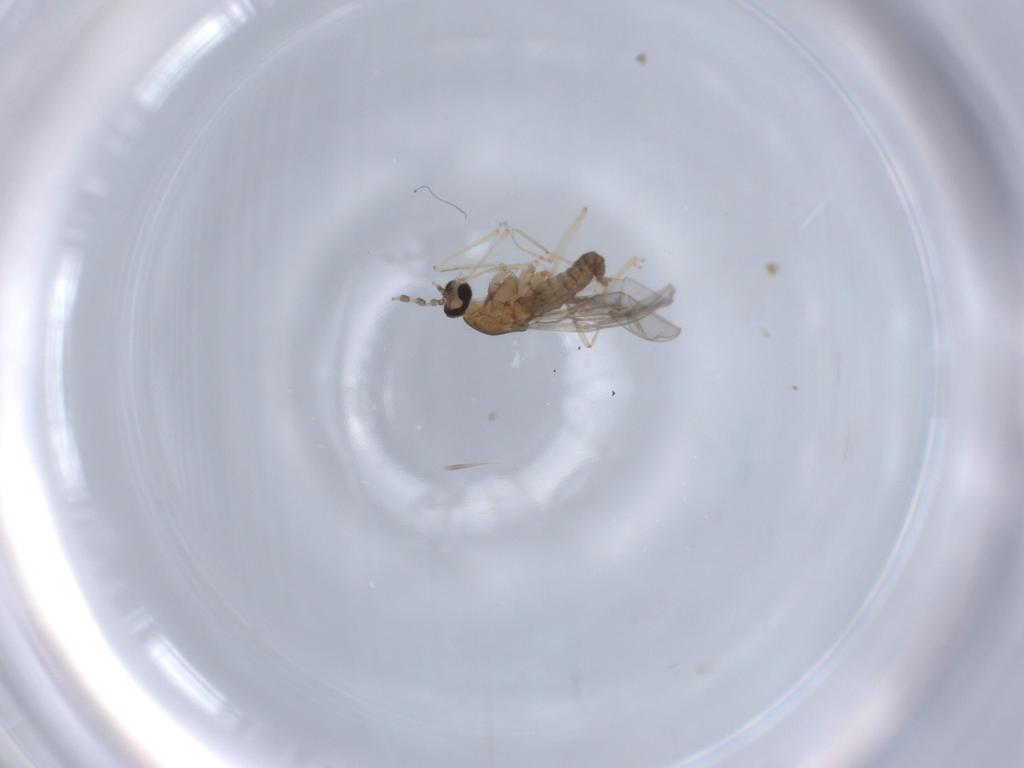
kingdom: Animalia
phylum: Arthropoda
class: Insecta
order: Diptera
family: Cecidomyiidae
